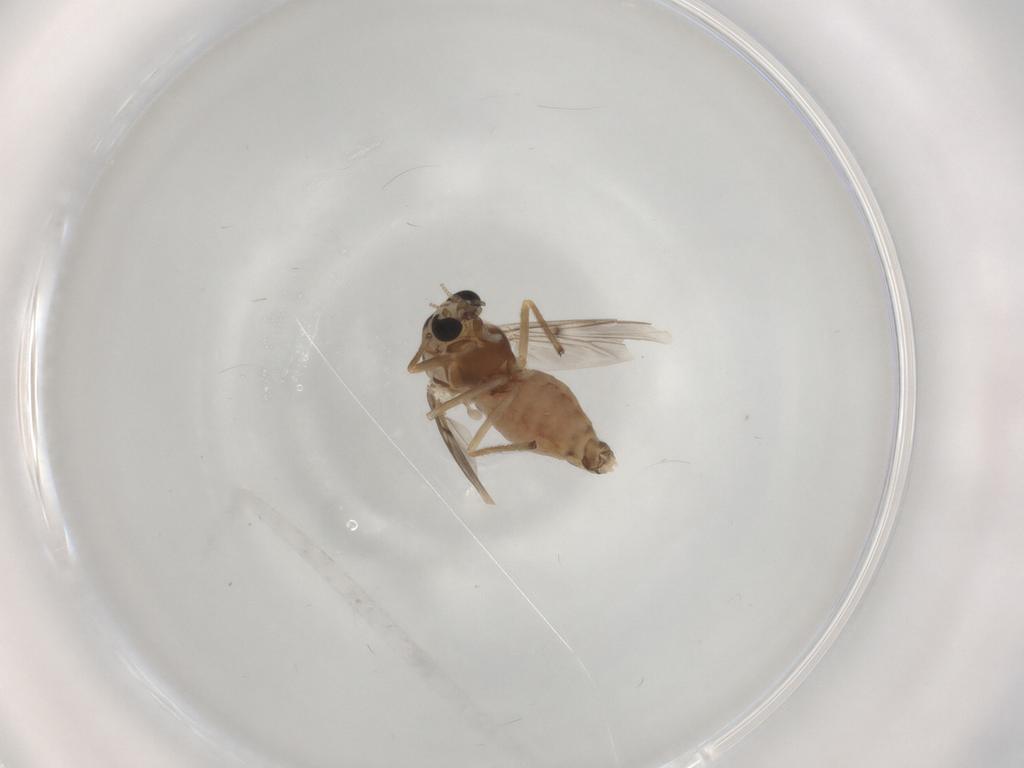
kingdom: Animalia
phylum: Arthropoda
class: Insecta
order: Diptera
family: Chironomidae
